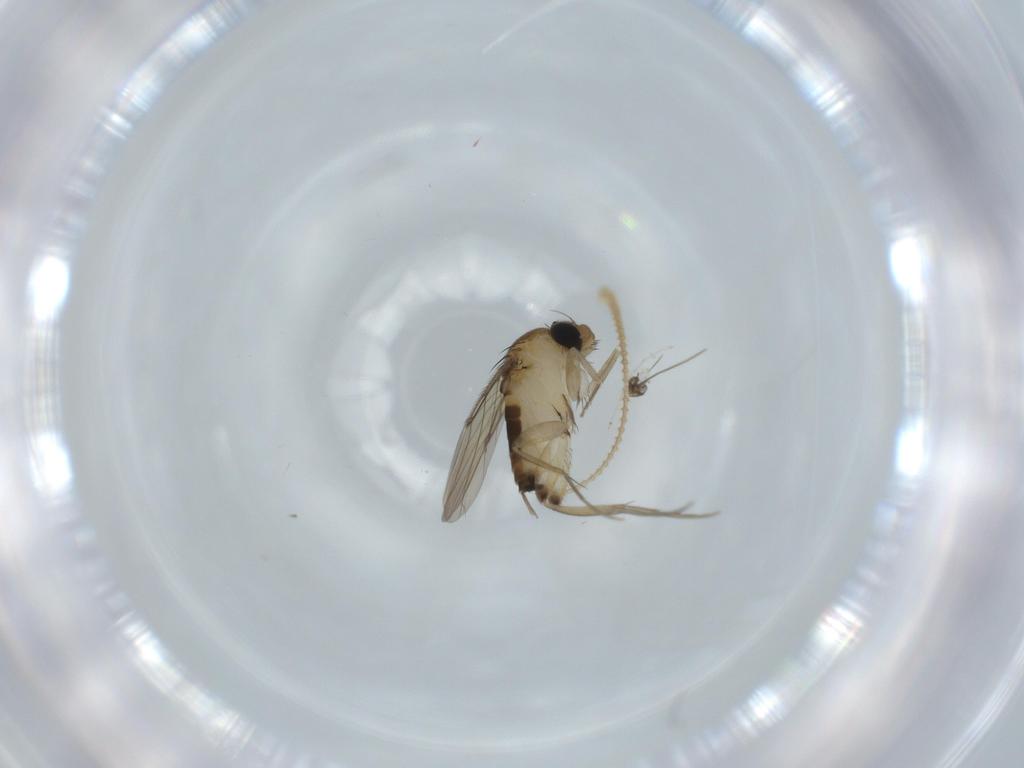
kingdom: Animalia
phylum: Arthropoda
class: Insecta
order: Diptera
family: Phoridae
